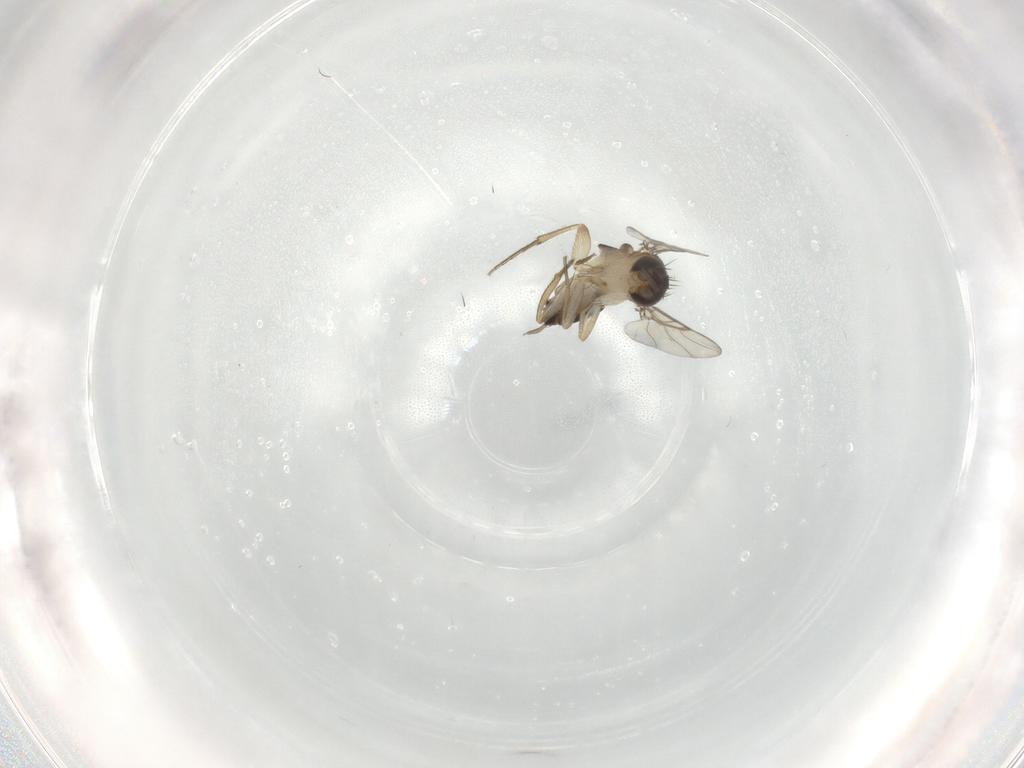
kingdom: Animalia
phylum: Arthropoda
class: Insecta
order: Diptera
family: Phoridae
